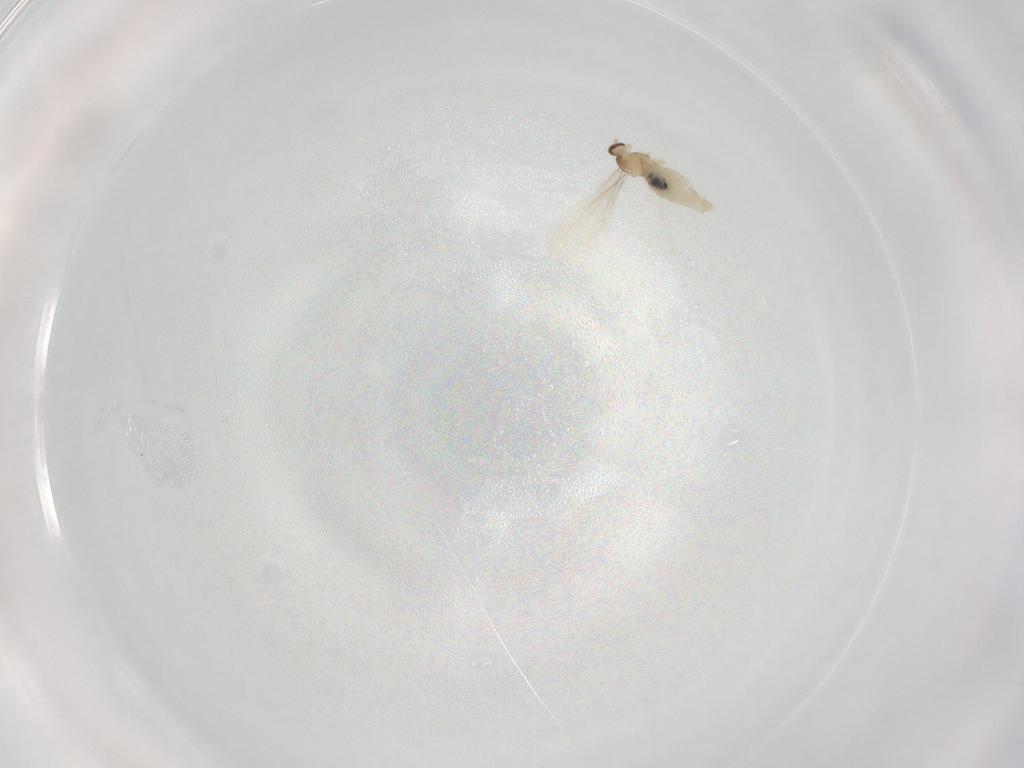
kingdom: Animalia
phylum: Arthropoda
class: Insecta
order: Diptera
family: Cecidomyiidae
